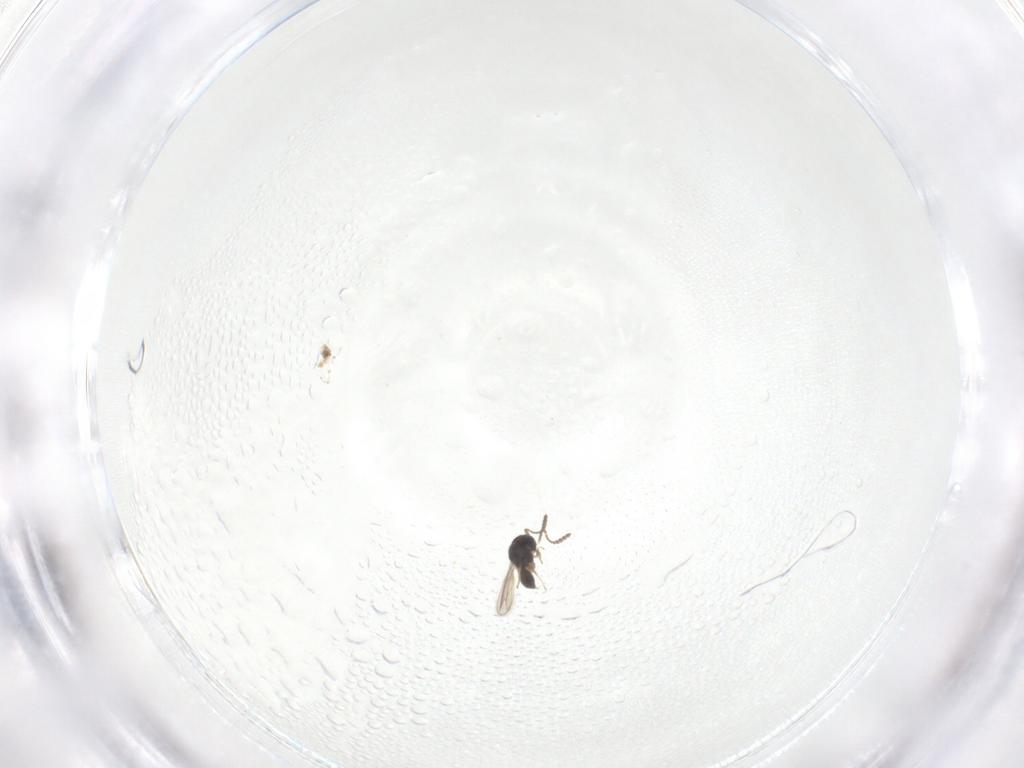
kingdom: Animalia
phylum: Arthropoda
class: Insecta
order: Hymenoptera
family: Scelionidae
